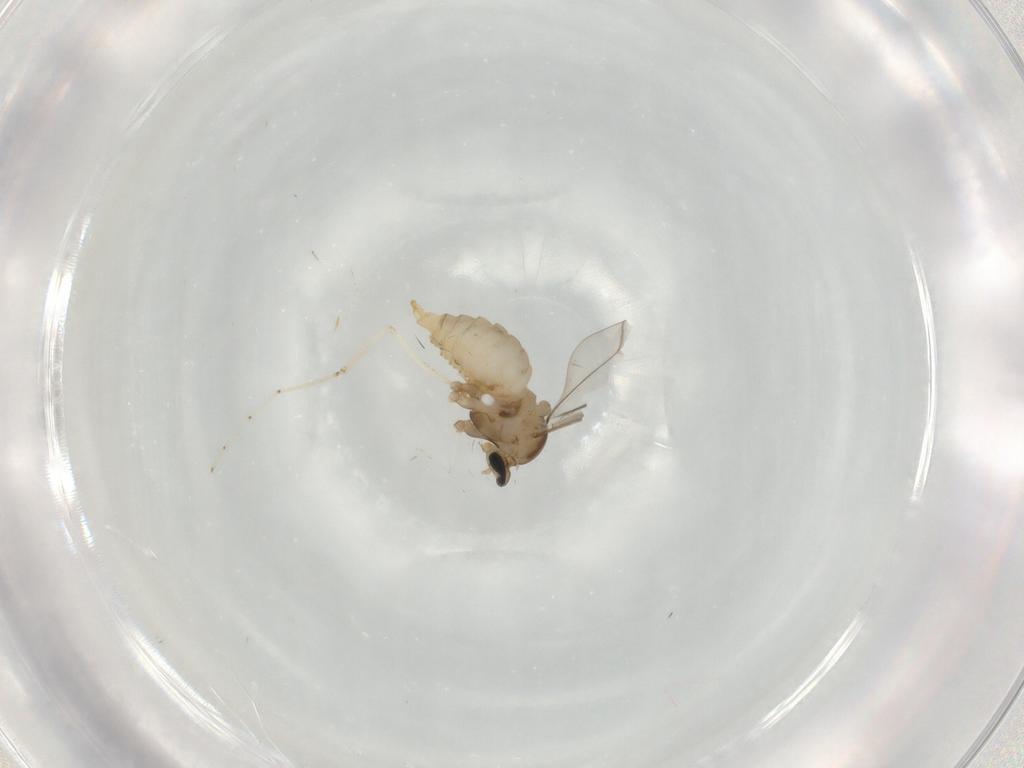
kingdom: Animalia
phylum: Arthropoda
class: Insecta
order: Diptera
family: Cecidomyiidae
